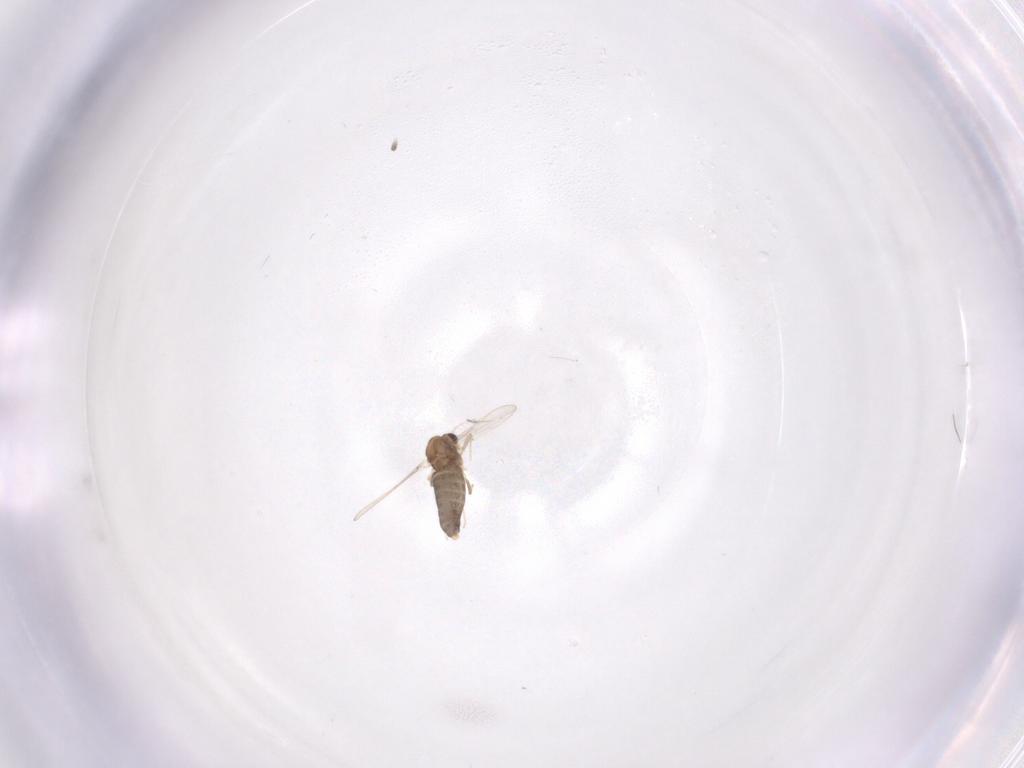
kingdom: Animalia
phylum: Arthropoda
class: Insecta
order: Diptera
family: Chironomidae
